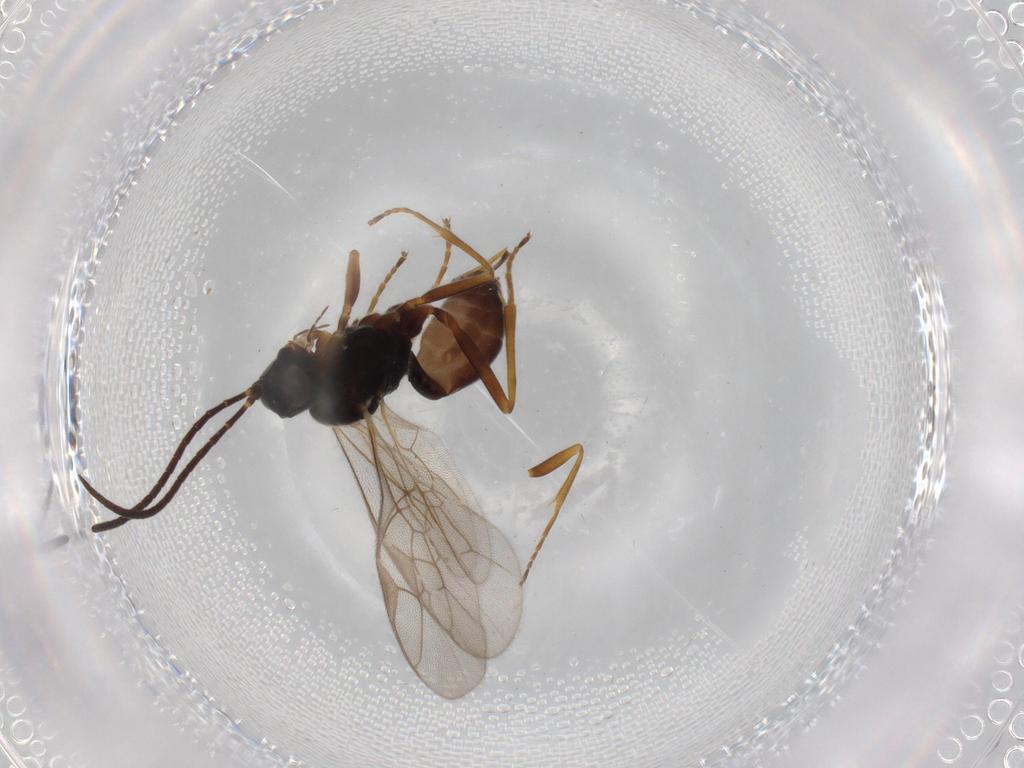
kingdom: Animalia
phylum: Arthropoda
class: Insecta
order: Hymenoptera
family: Ichneumonidae
